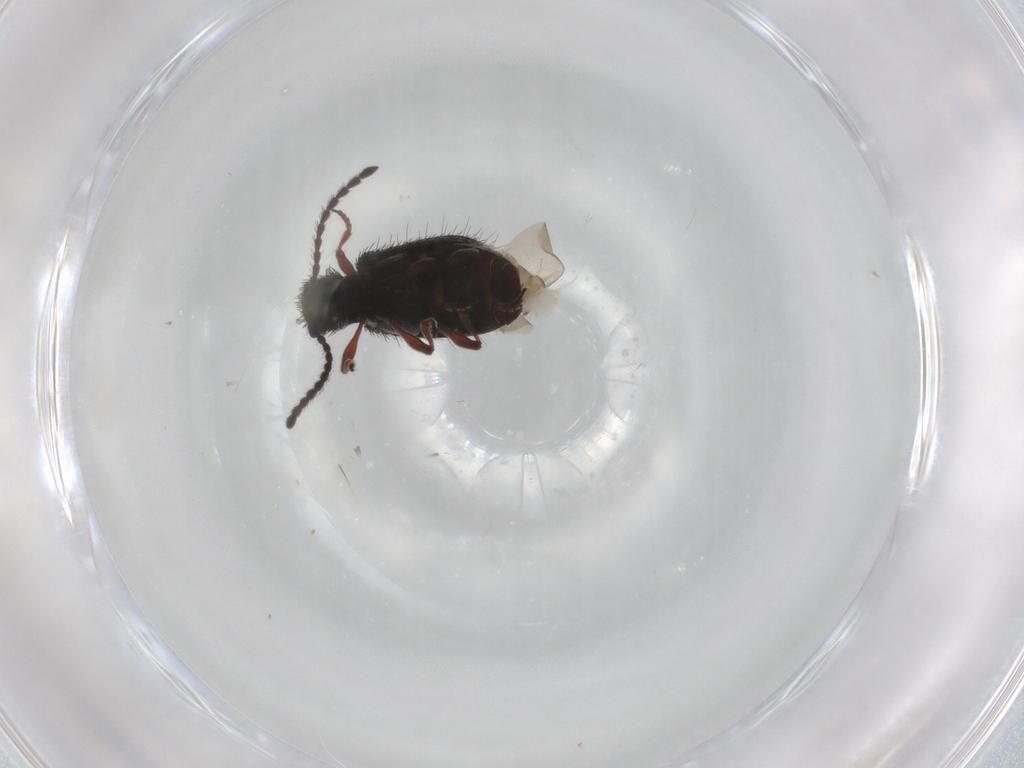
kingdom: Animalia
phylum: Arthropoda
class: Insecta
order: Coleoptera
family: Ptinidae
